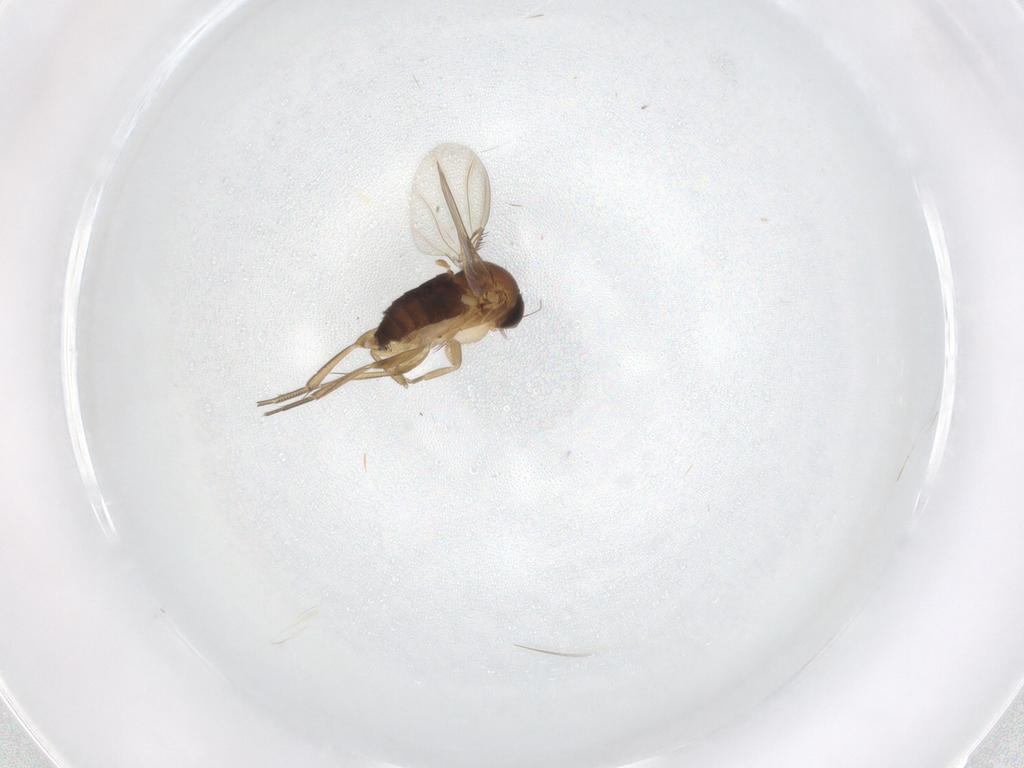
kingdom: Animalia
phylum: Arthropoda
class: Insecta
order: Diptera
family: Phoridae
